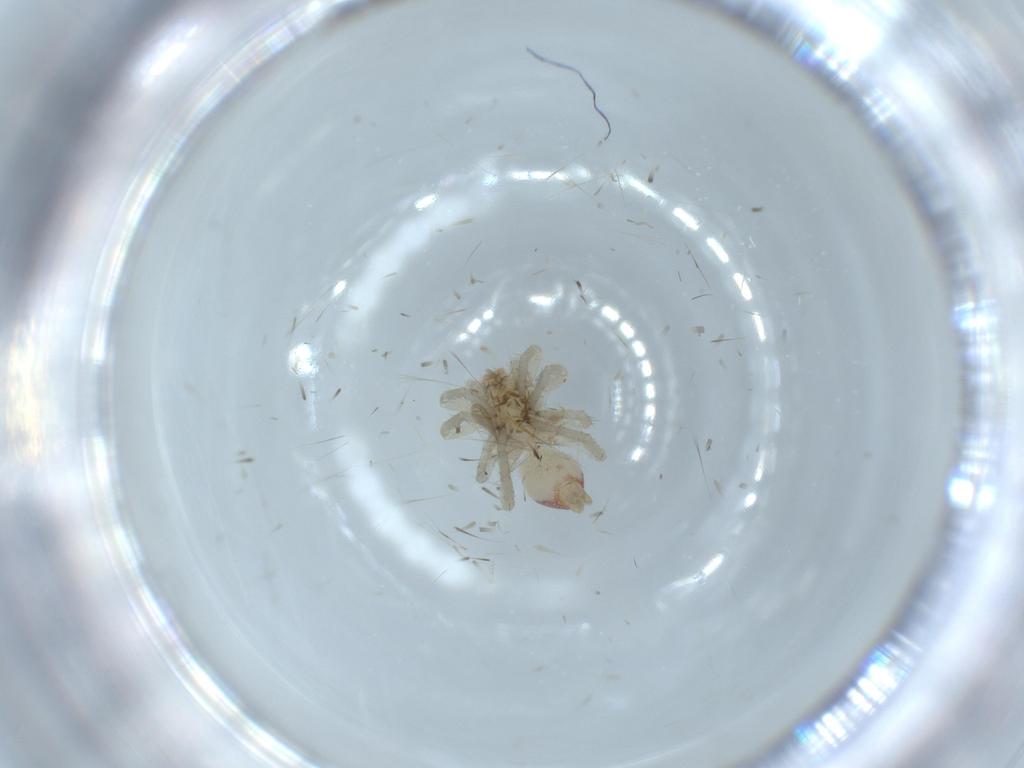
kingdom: Animalia
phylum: Arthropoda
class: Arachnida
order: Araneae
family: Clubionidae
